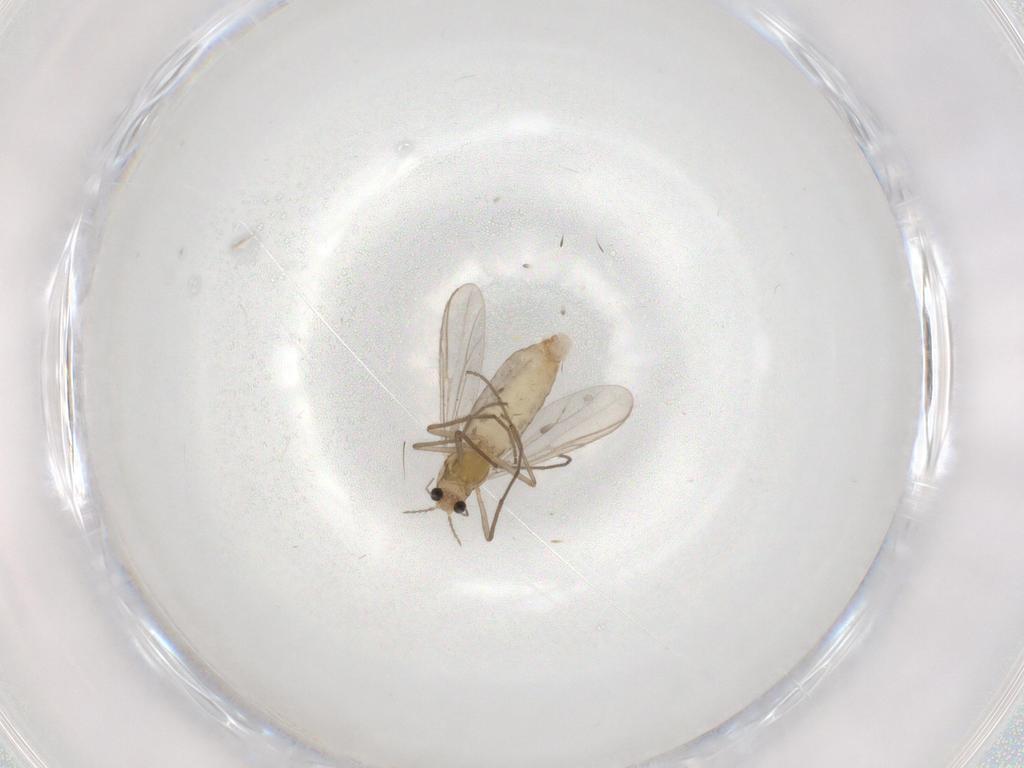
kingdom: Animalia
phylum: Arthropoda
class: Insecta
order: Diptera
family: Chironomidae
